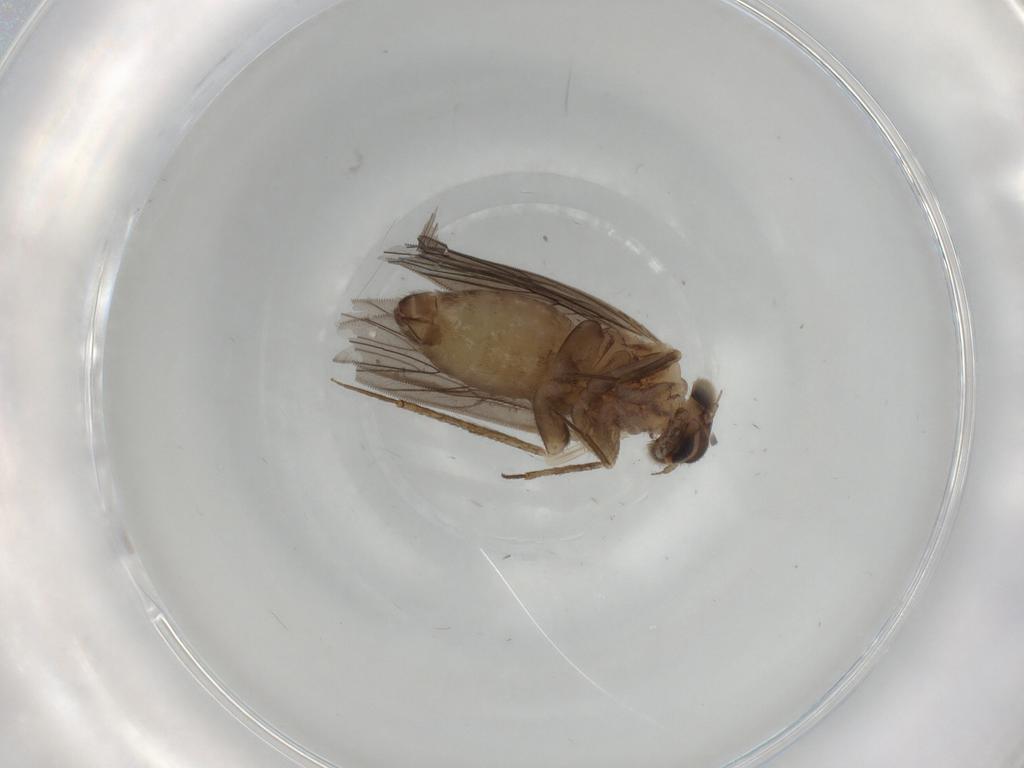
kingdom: Animalia
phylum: Arthropoda
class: Insecta
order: Psocodea
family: Lepidopsocidae
